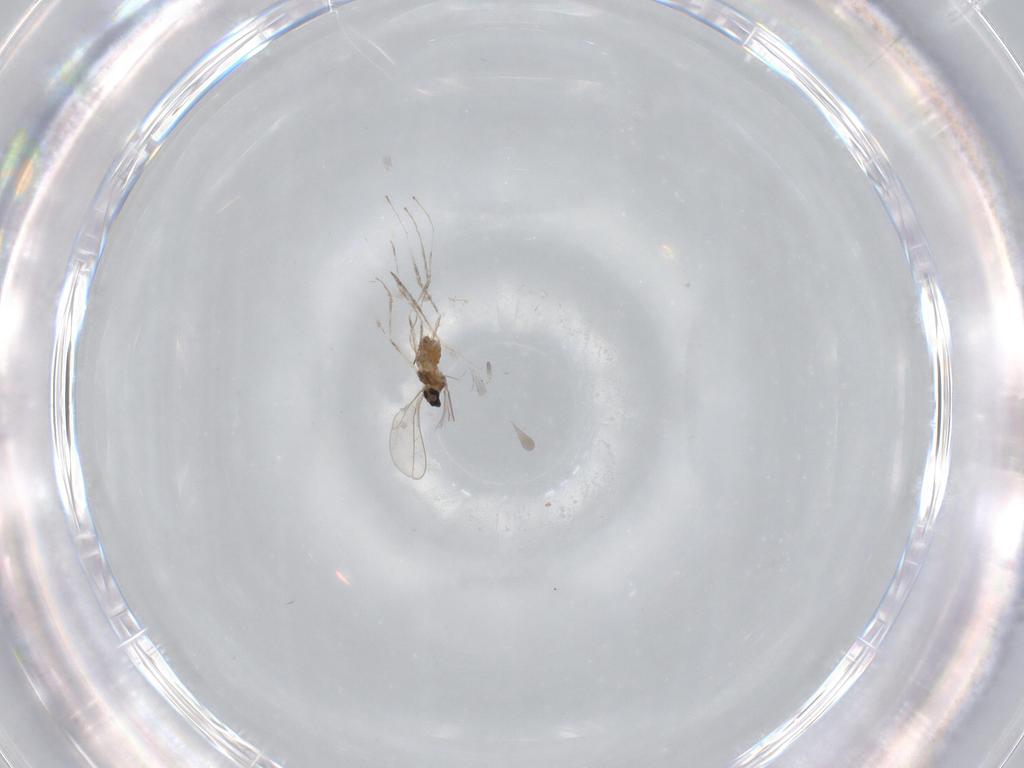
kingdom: Animalia
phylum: Arthropoda
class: Insecta
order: Diptera
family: Cecidomyiidae
